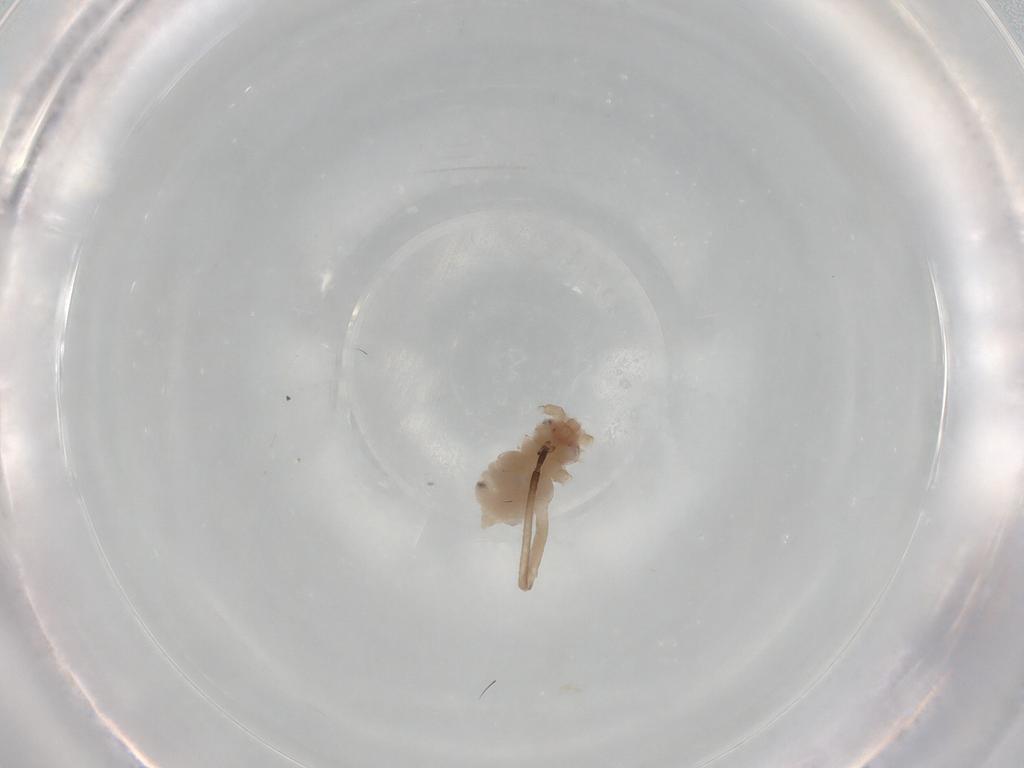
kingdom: Animalia
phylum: Arthropoda
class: Insecta
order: Hemiptera
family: Aphididae
